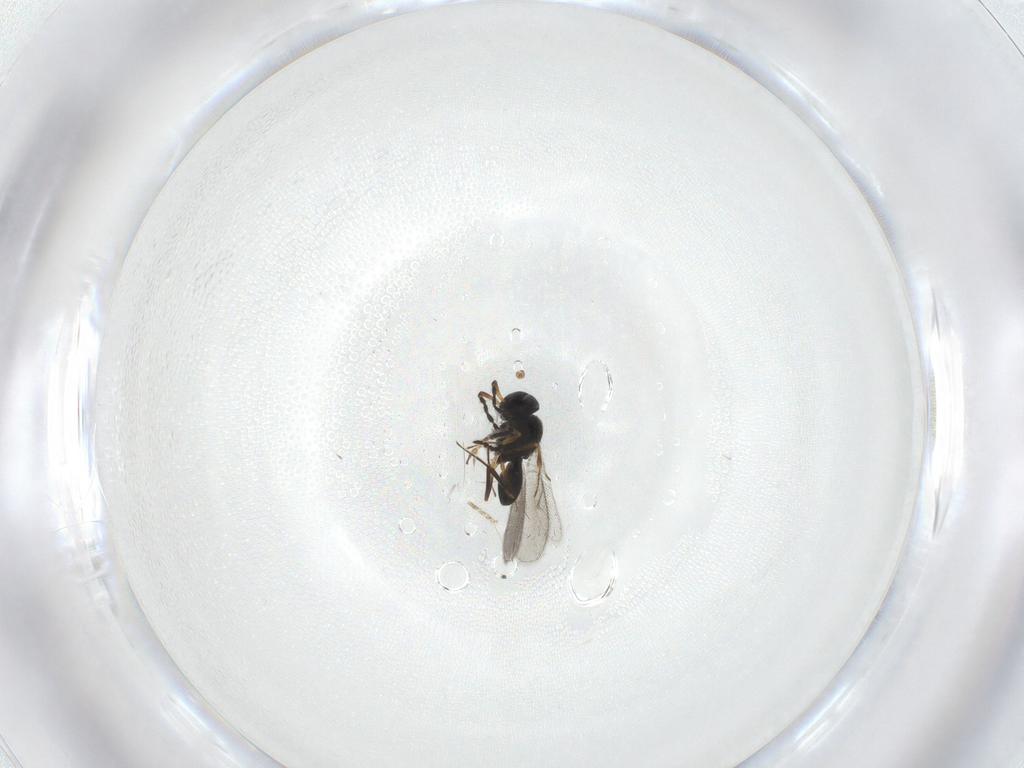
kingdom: Animalia
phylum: Arthropoda
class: Insecta
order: Hymenoptera
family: Scelionidae
